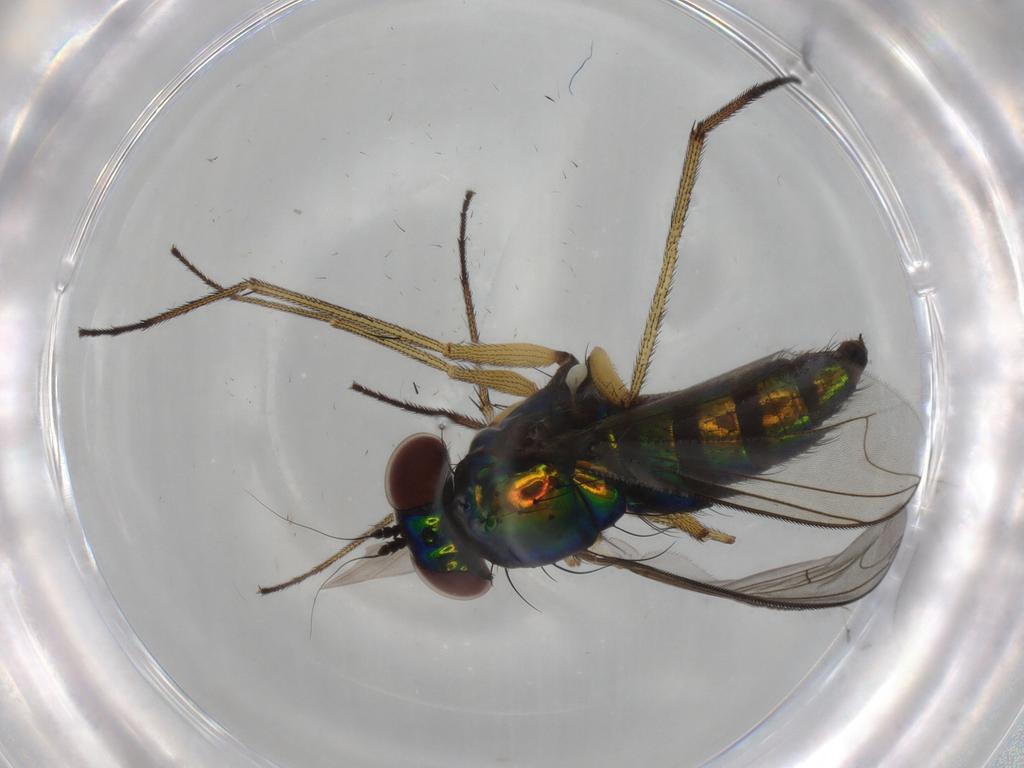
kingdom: Animalia
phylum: Arthropoda
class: Insecta
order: Diptera
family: Dolichopodidae
